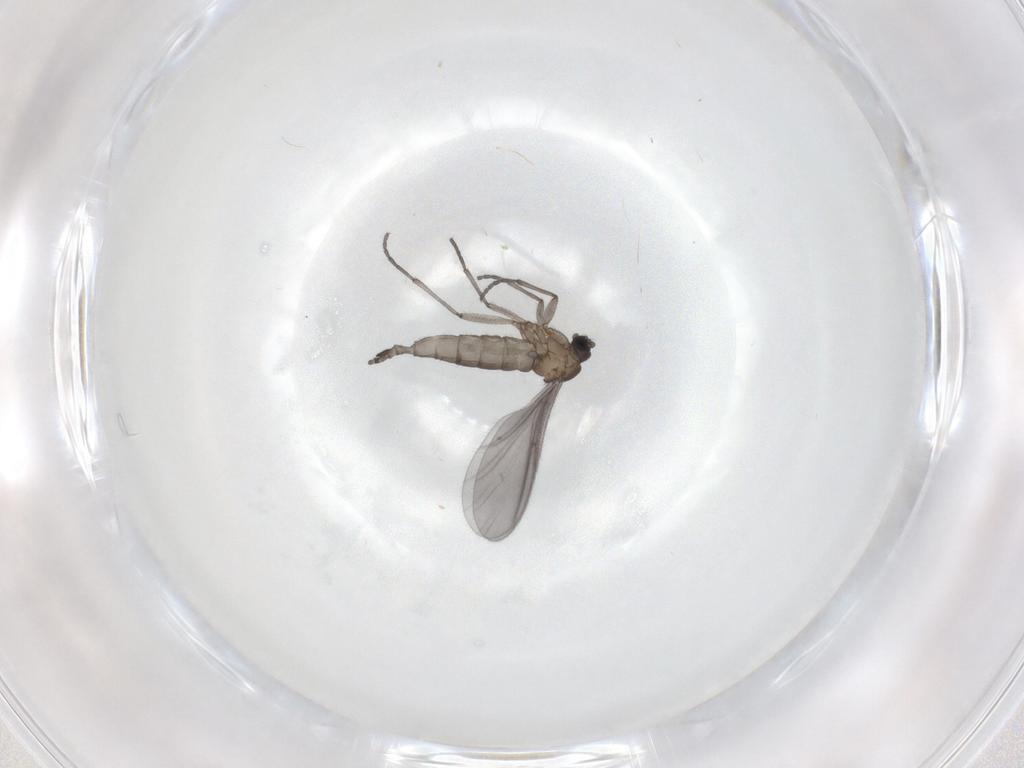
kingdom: Animalia
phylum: Arthropoda
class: Insecta
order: Diptera
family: Sciaridae
